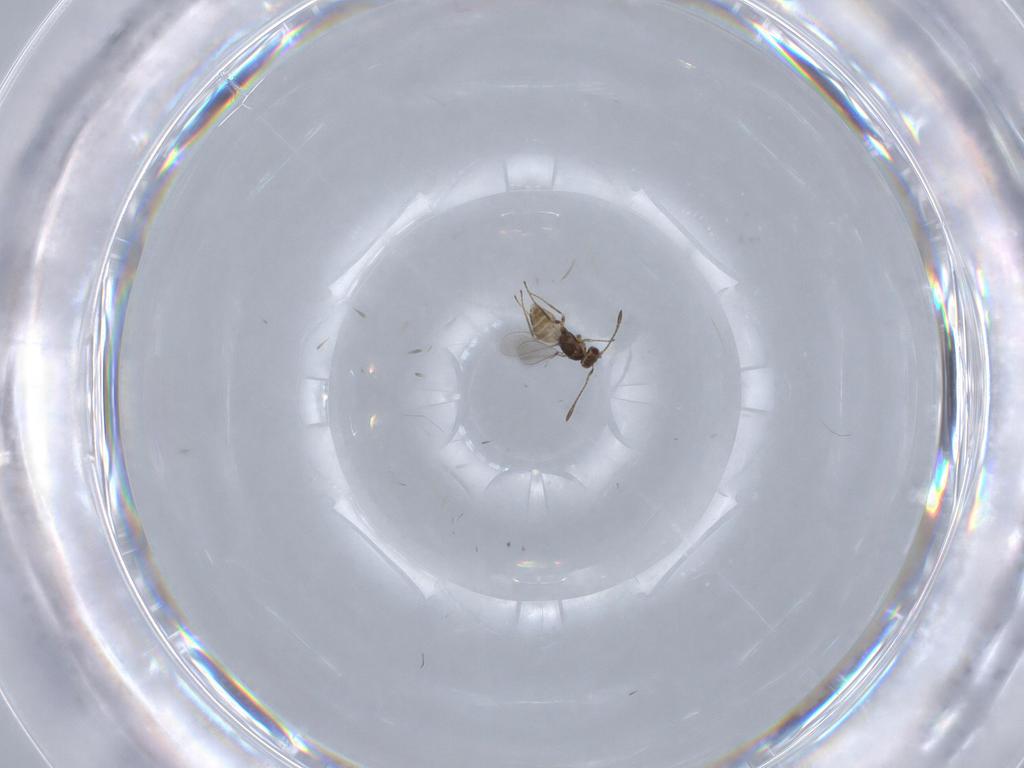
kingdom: Animalia
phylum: Arthropoda
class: Insecta
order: Hymenoptera
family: Mymaridae
